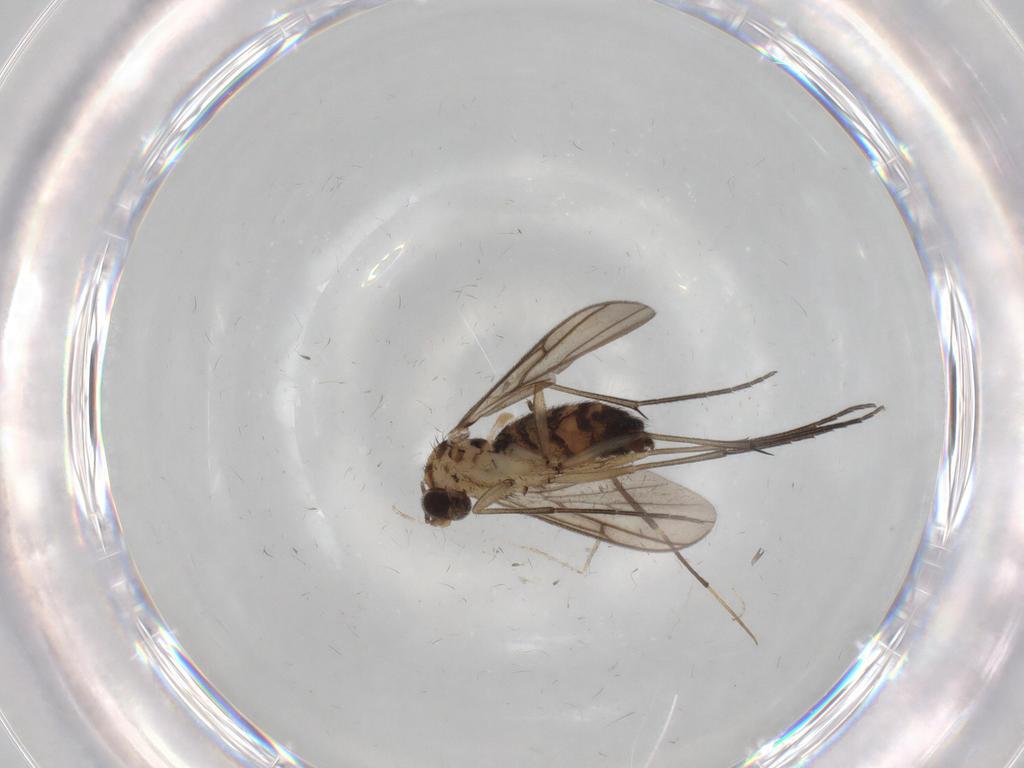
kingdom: Animalia
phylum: Arthropoda
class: Insecta
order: Diptera
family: Keroplatidae
